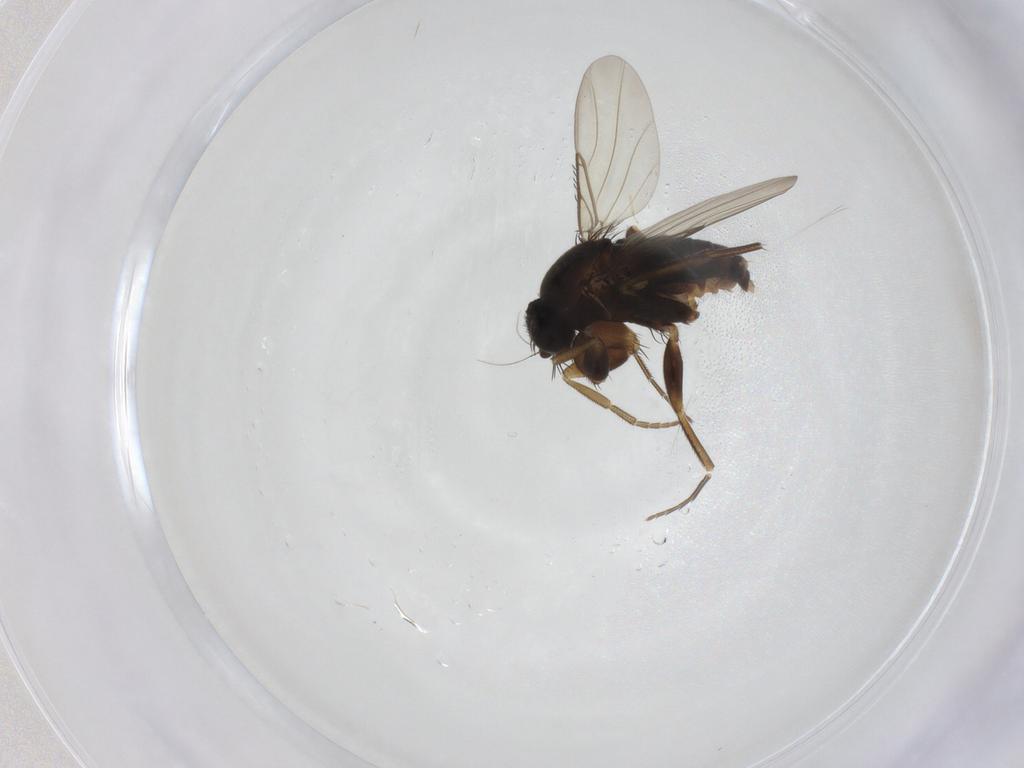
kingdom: Animalia
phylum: Arthropoda
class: Insecta
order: Diptera
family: Phoridae
